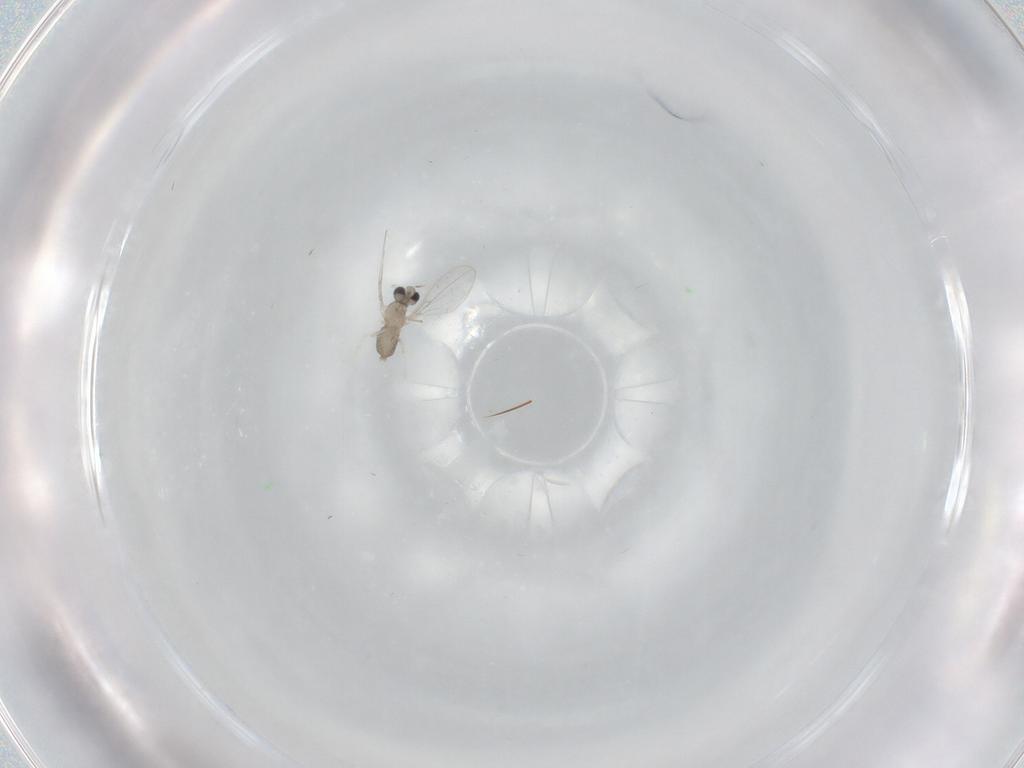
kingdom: Animalia
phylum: Arthropoda
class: Insecta
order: Diptera
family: Cecidomyiidae
